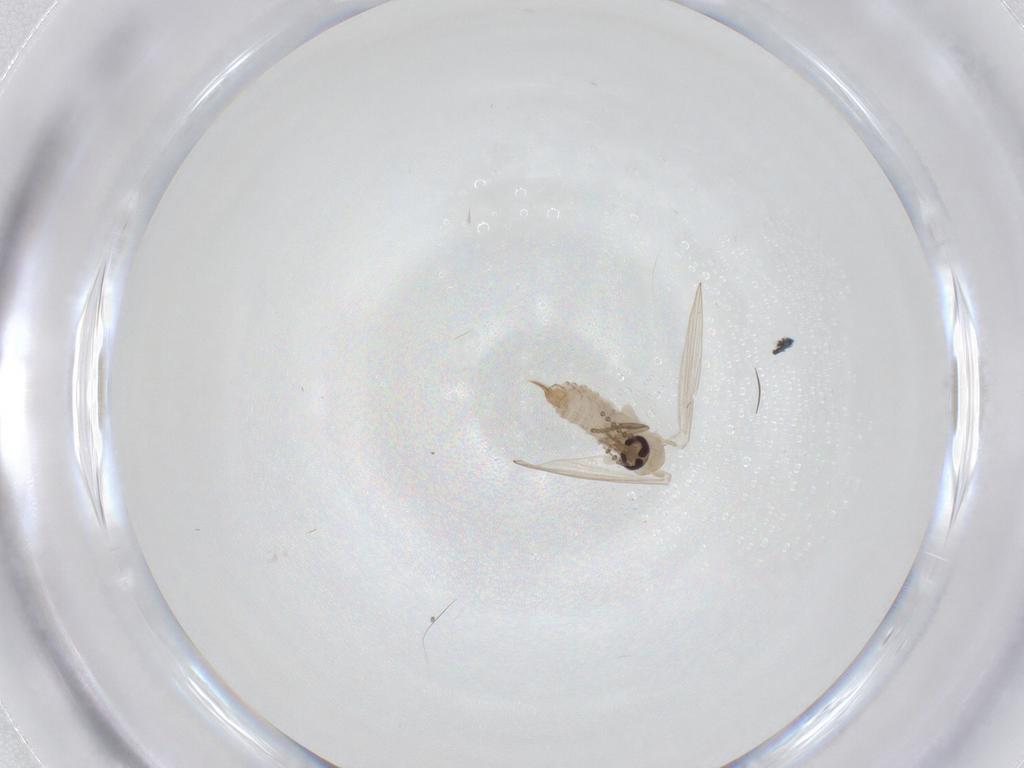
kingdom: Animalia
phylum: Arthropoda
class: Insecta
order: Diptera
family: Psychodidae
